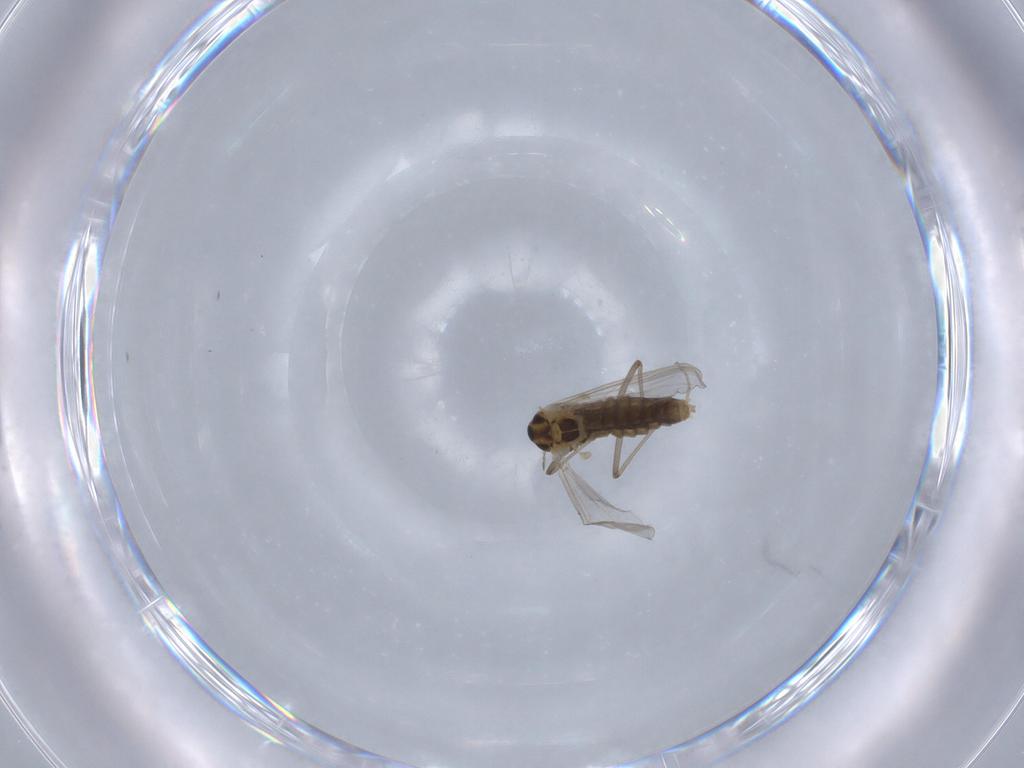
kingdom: Animalia
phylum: Arthropoda
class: Insecta
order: Diptera
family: Chironomidae
